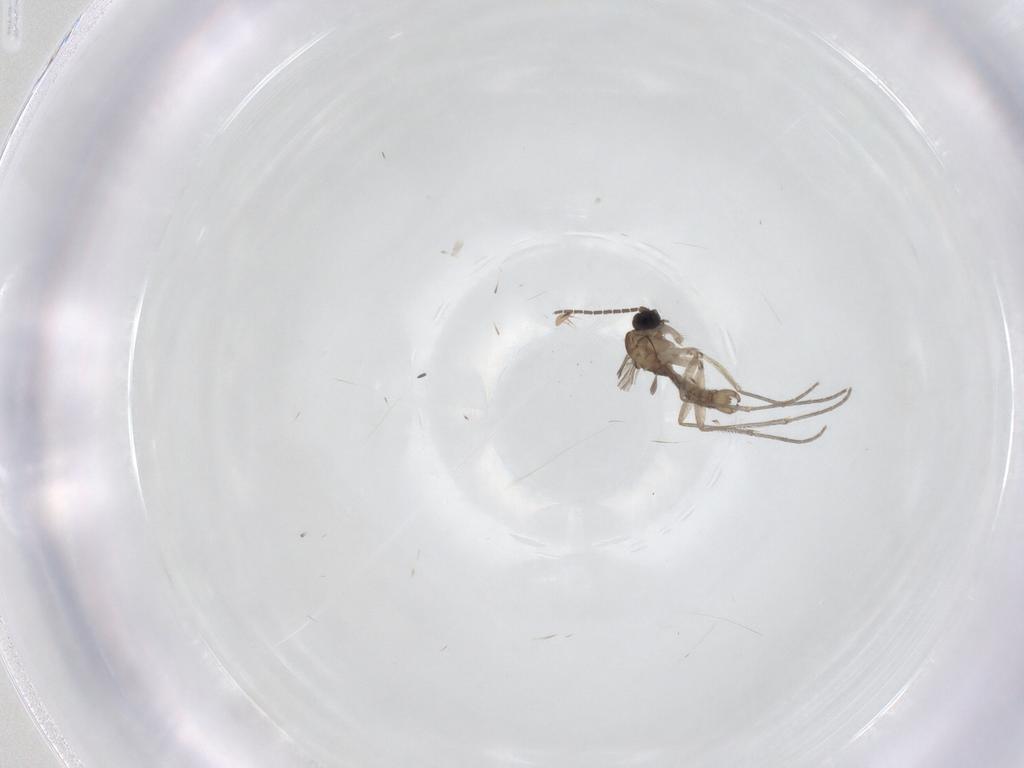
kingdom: Animalia
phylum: Arthropoda
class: Insecta
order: Diptera
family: Sciaridae
